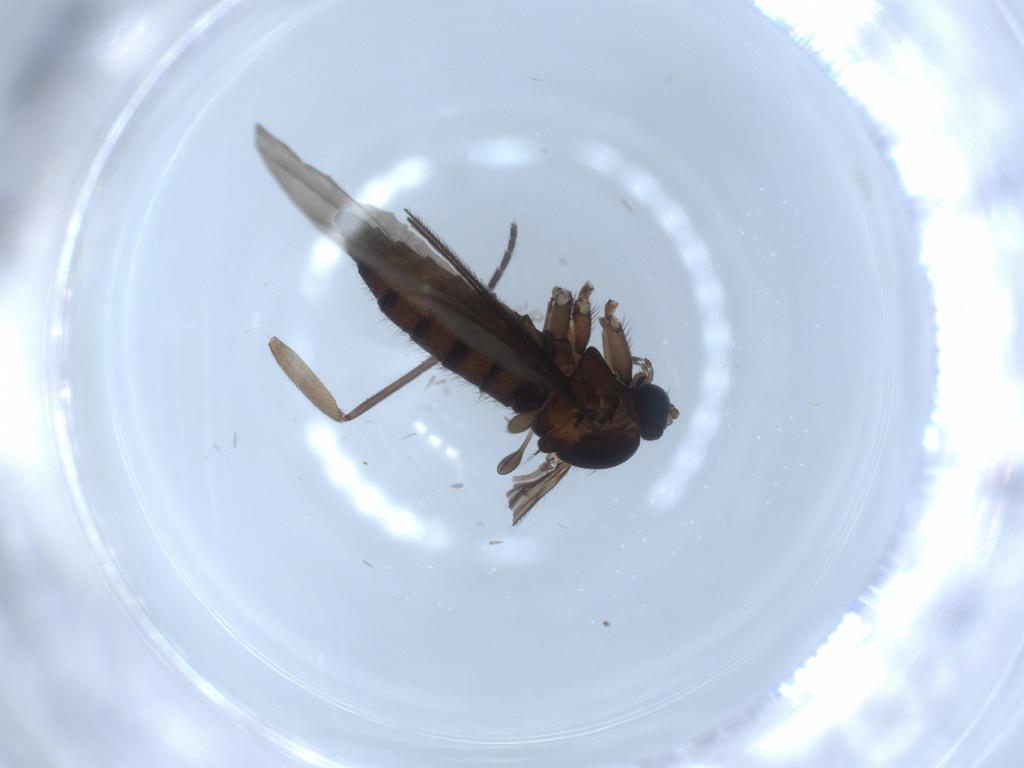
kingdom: Animalia
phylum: Arthropoda
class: Insecta
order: Diptera
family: Sciaridae
